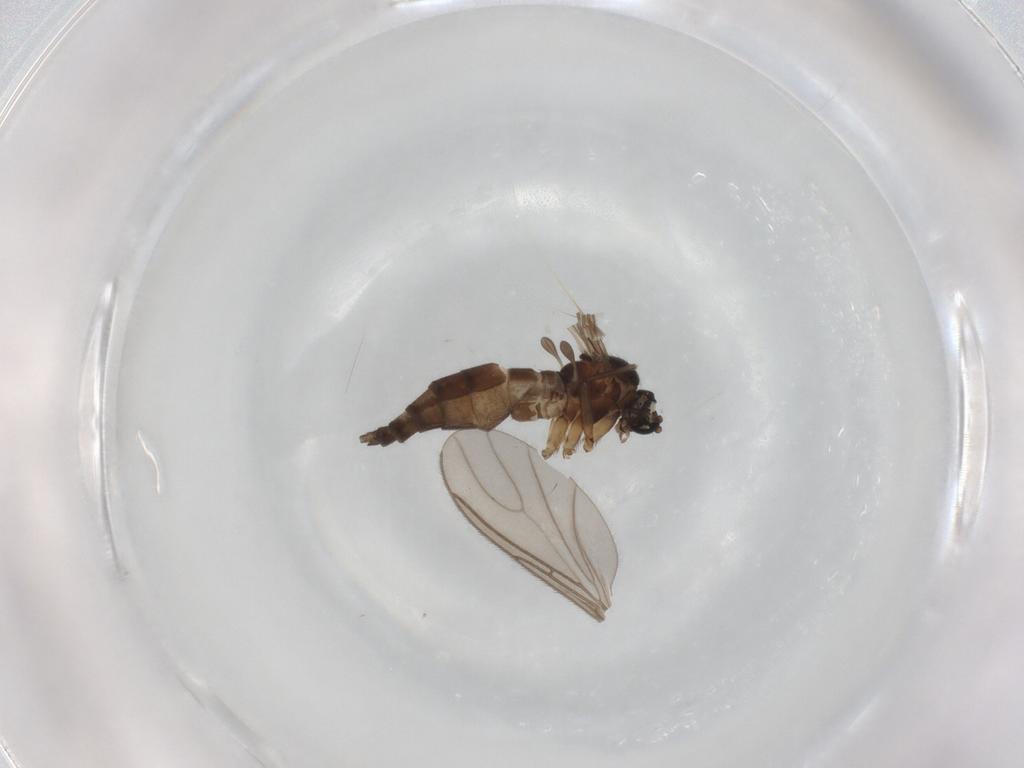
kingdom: Animalia
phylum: Arthropoda
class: Insecta
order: Diptera
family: Sciaridae
